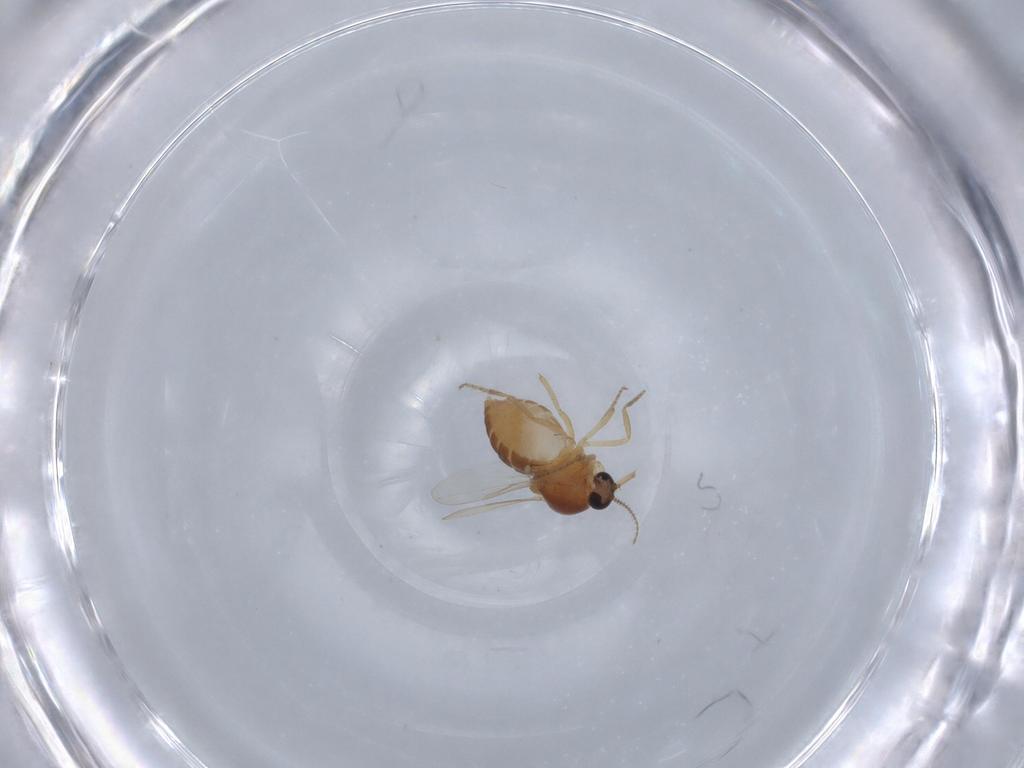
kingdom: Animalia
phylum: Arthropoda
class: Insecta
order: Diptera
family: Ceratopogonidae
